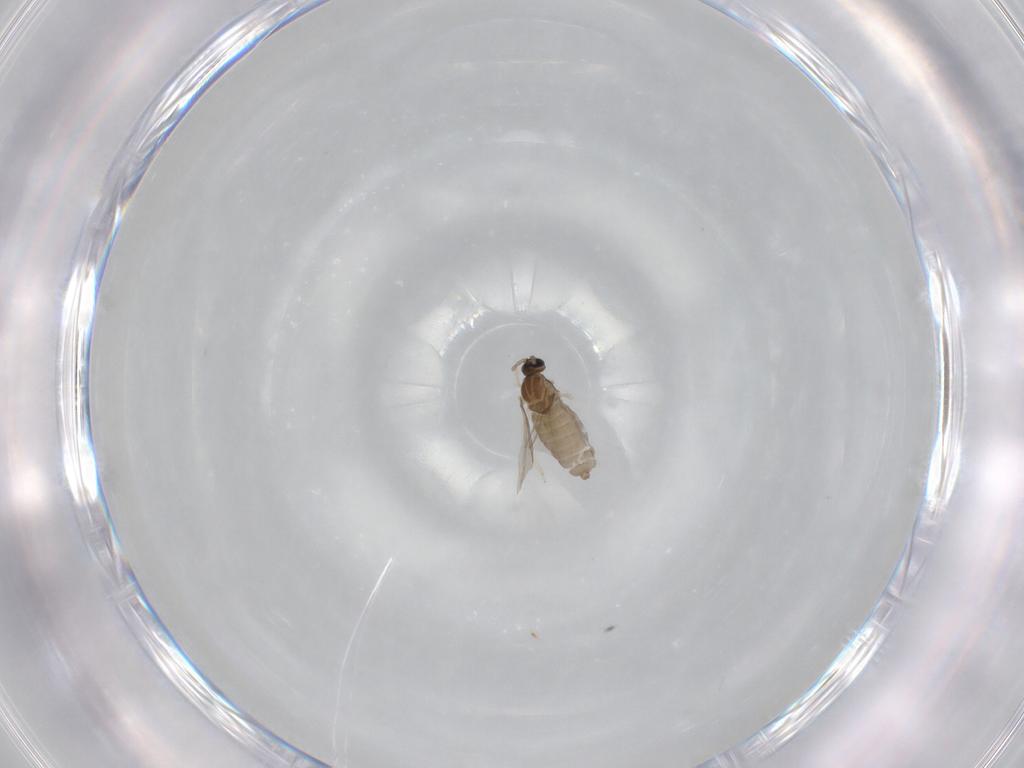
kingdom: Animalia
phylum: Arthropoda
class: Insecta
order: Diptera
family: Cecidomyiidae
